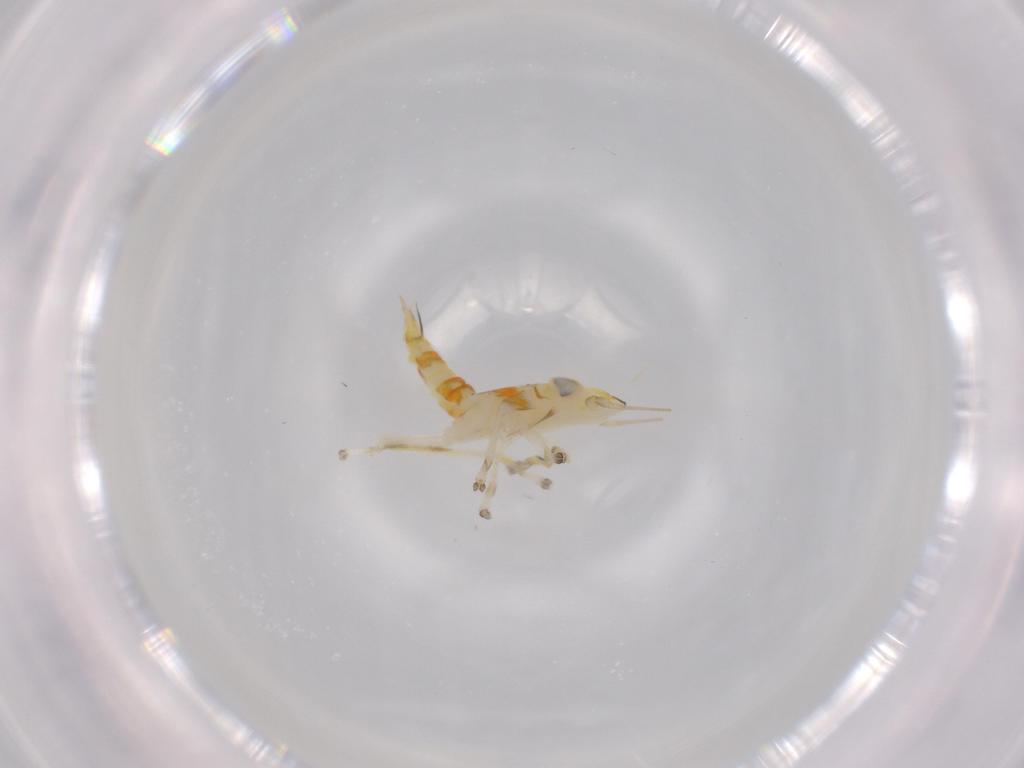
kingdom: Animalia
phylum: Arthropoda
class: Insecta
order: Hemiptera
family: Cicadellidae
